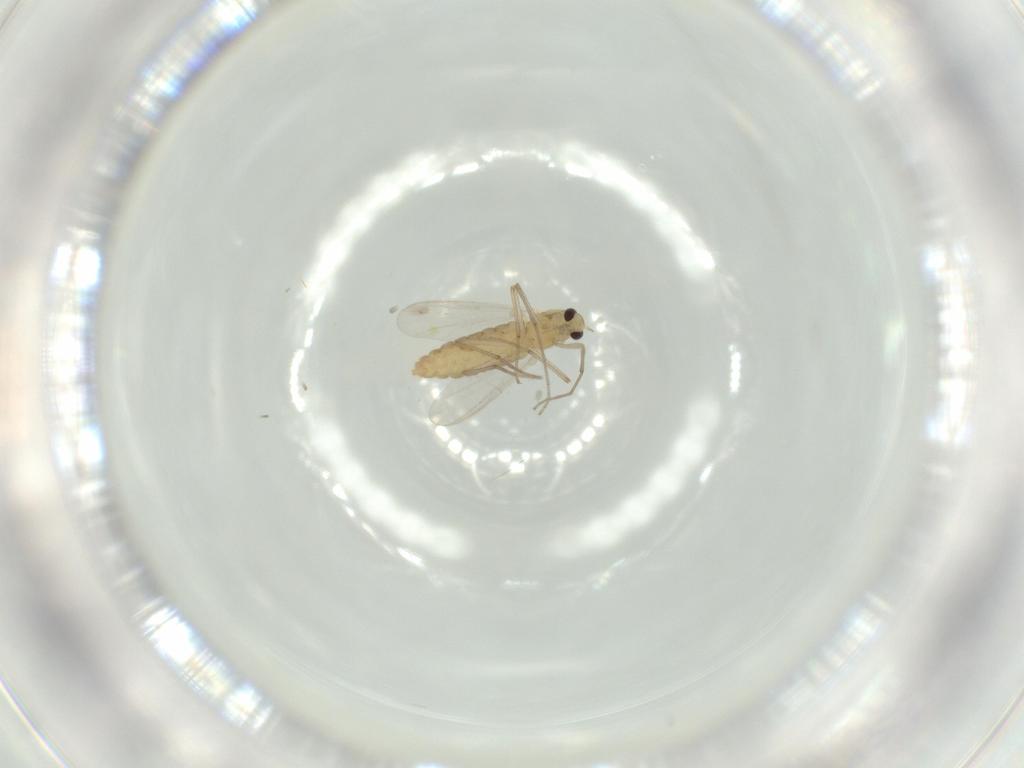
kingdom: Animalia
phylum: Arthropoda
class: Insecta
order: Diptera
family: Chironomidae
